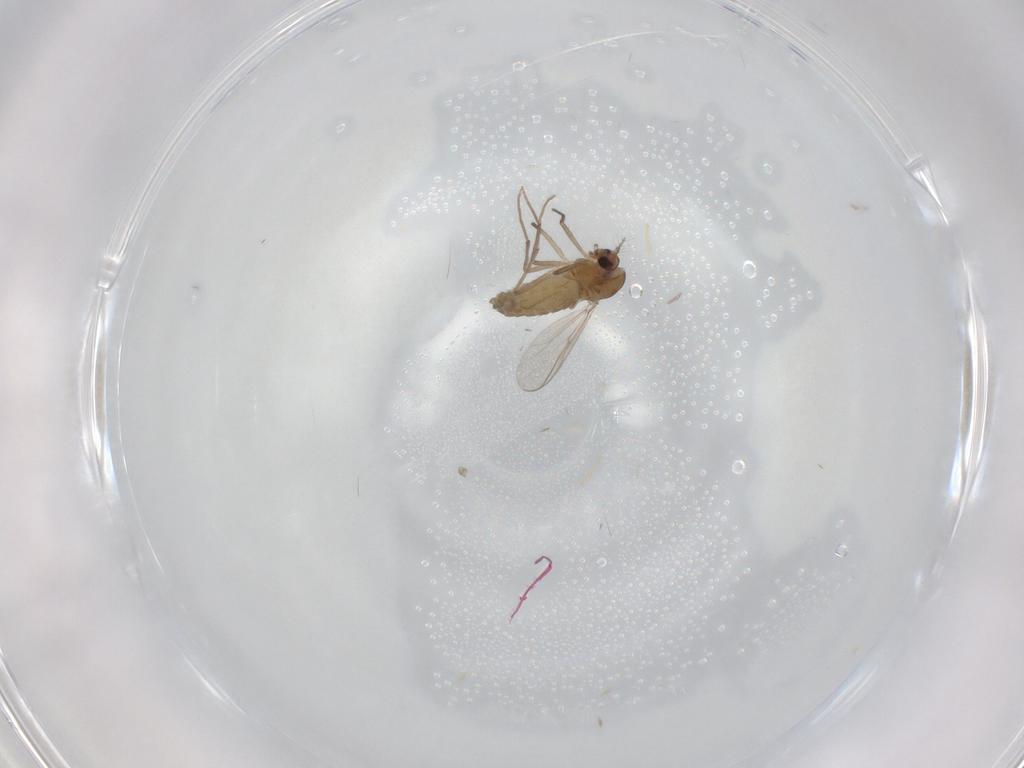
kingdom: Animalia
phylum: Arthropoda
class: Insecta
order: Diptera
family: Chironomidae
